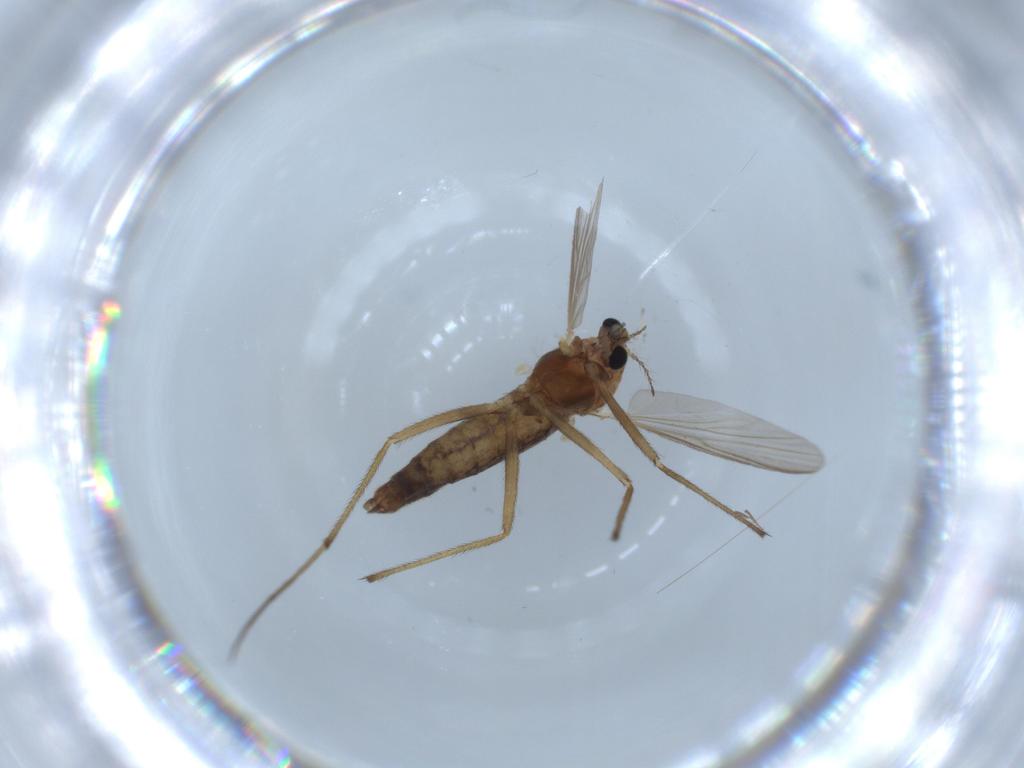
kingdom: Animalia
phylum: Arthropoda
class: Insecta
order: Diptera
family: Chironomidae
